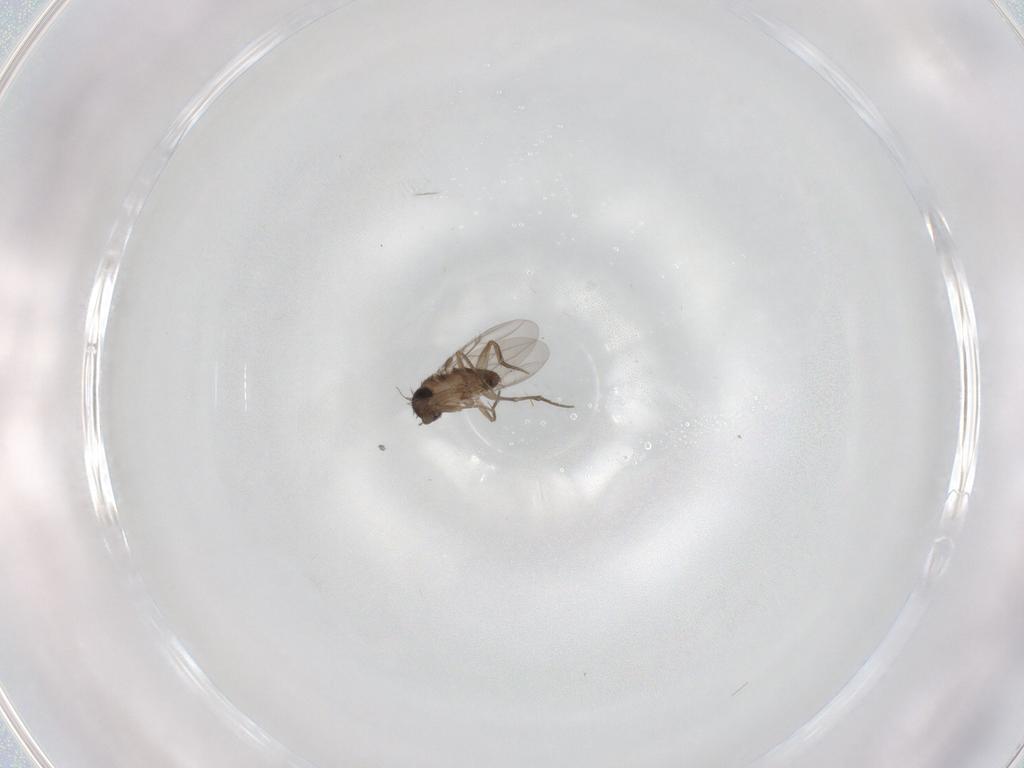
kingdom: Animalia
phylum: Arthropoda
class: Insecta
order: Diptera
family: Phoridae
